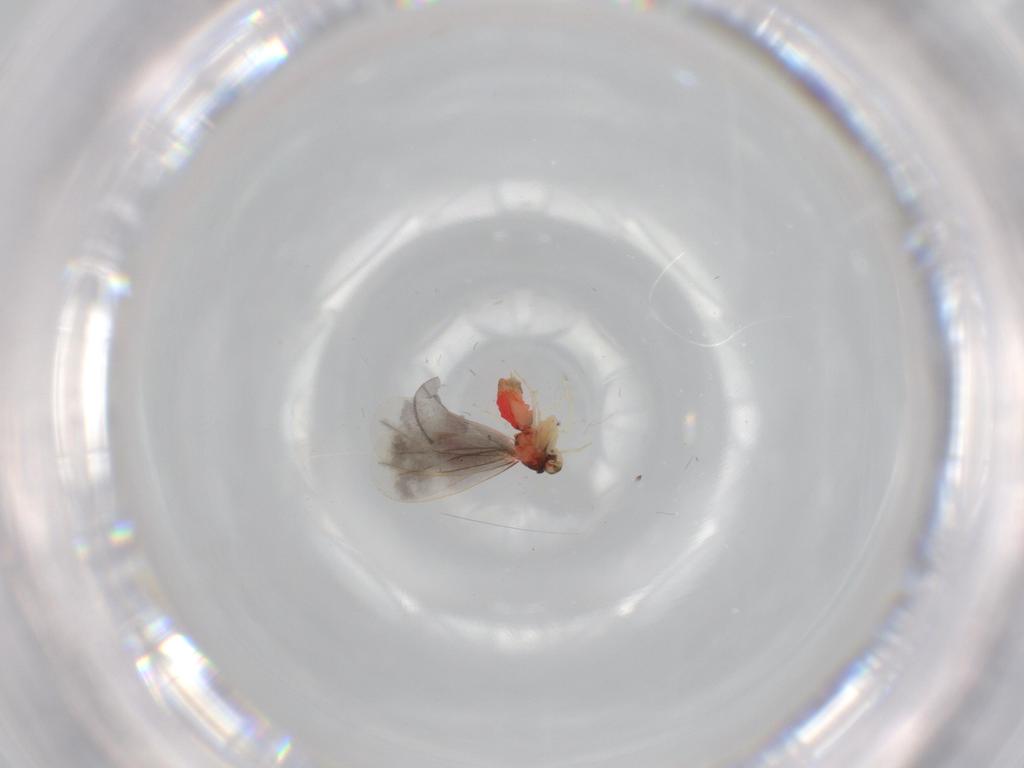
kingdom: Animalia
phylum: Arthropoda
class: Insecta
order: Hemiptera
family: Aleyrodidae
